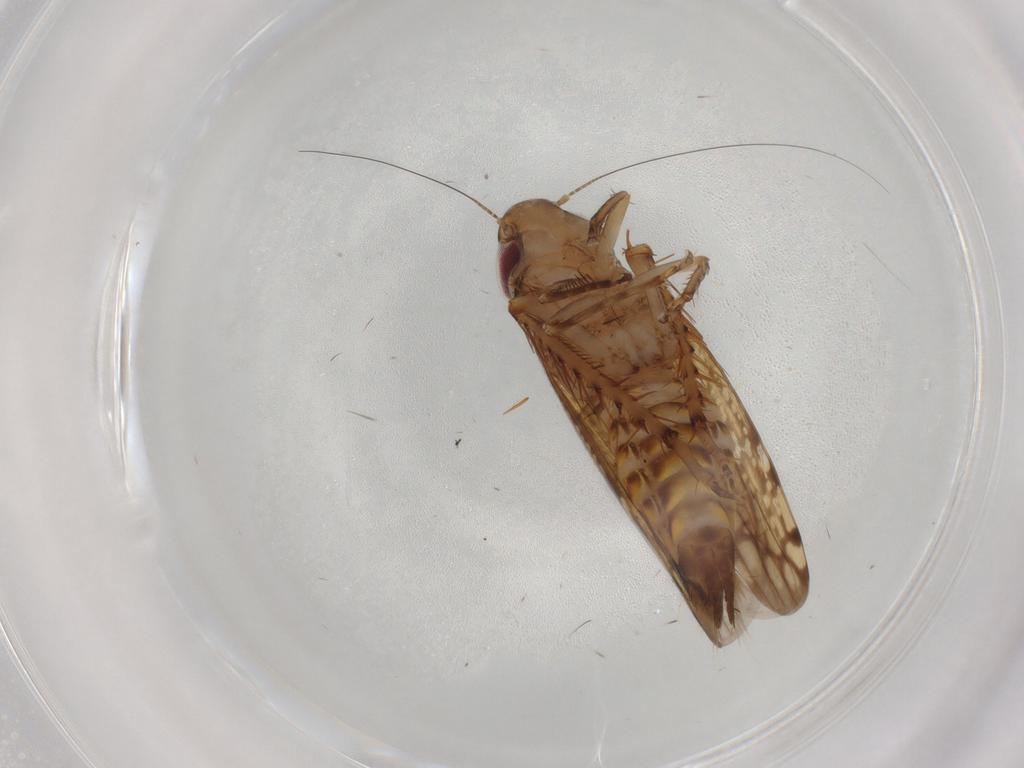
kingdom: Animalia
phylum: Arthropoda
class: Insecta
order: Hemiptera
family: Cicadellidae
